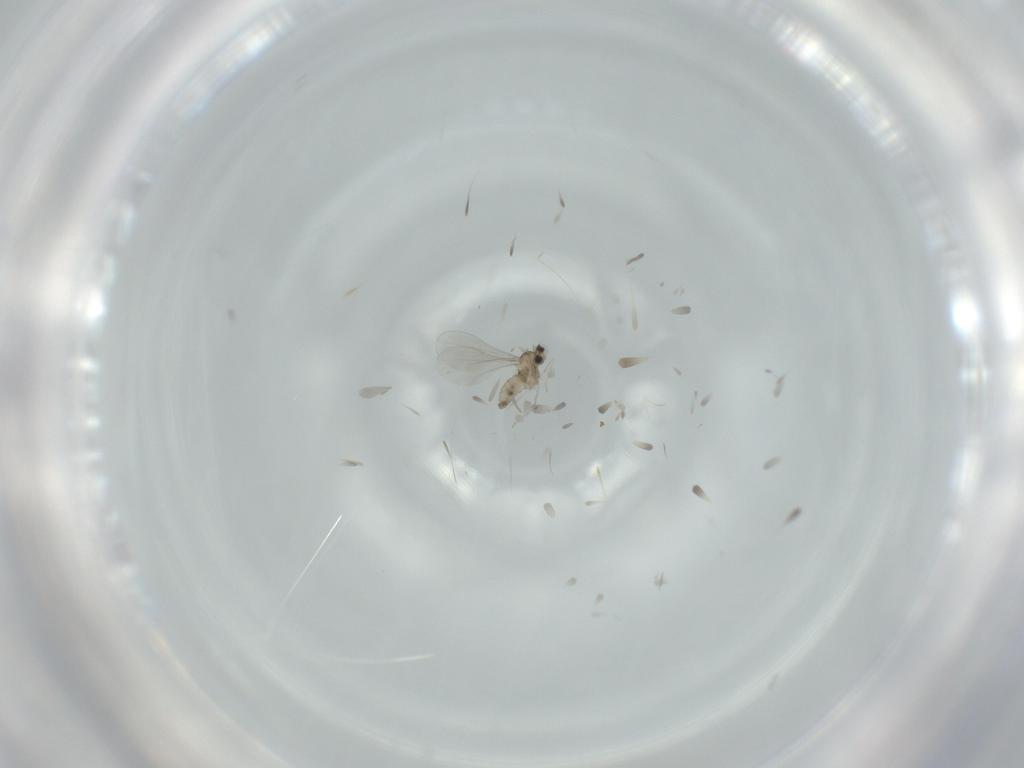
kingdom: Animalia
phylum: Arthropoda
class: Insecta
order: Diptera
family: Cecidomyiidae
